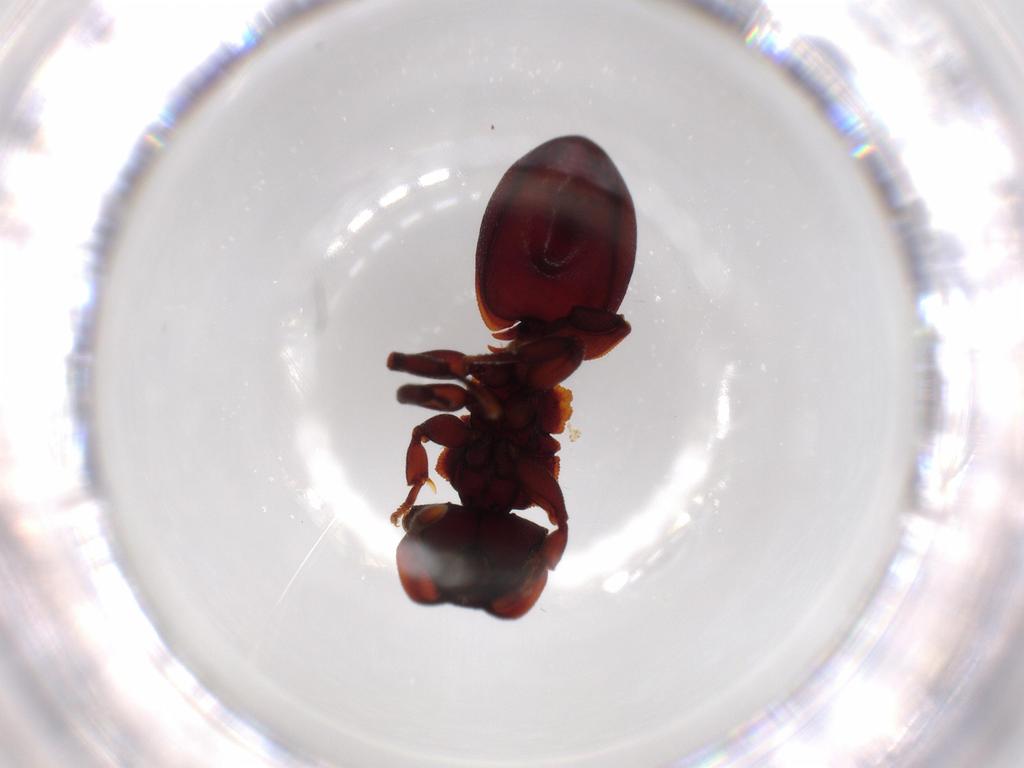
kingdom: Animalia
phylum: Arthropoda
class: Insecta
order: Hymenoptera
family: Formicidae
